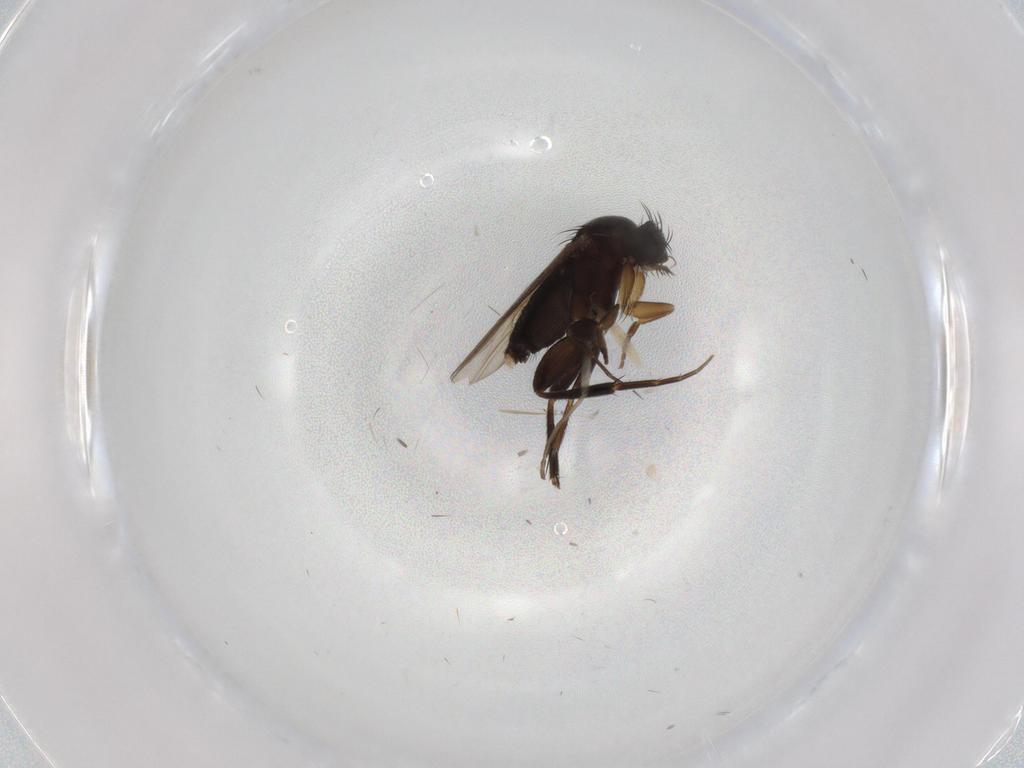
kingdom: Animalia
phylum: Arthropoda
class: Insecta
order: Diptera
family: Phoridae
